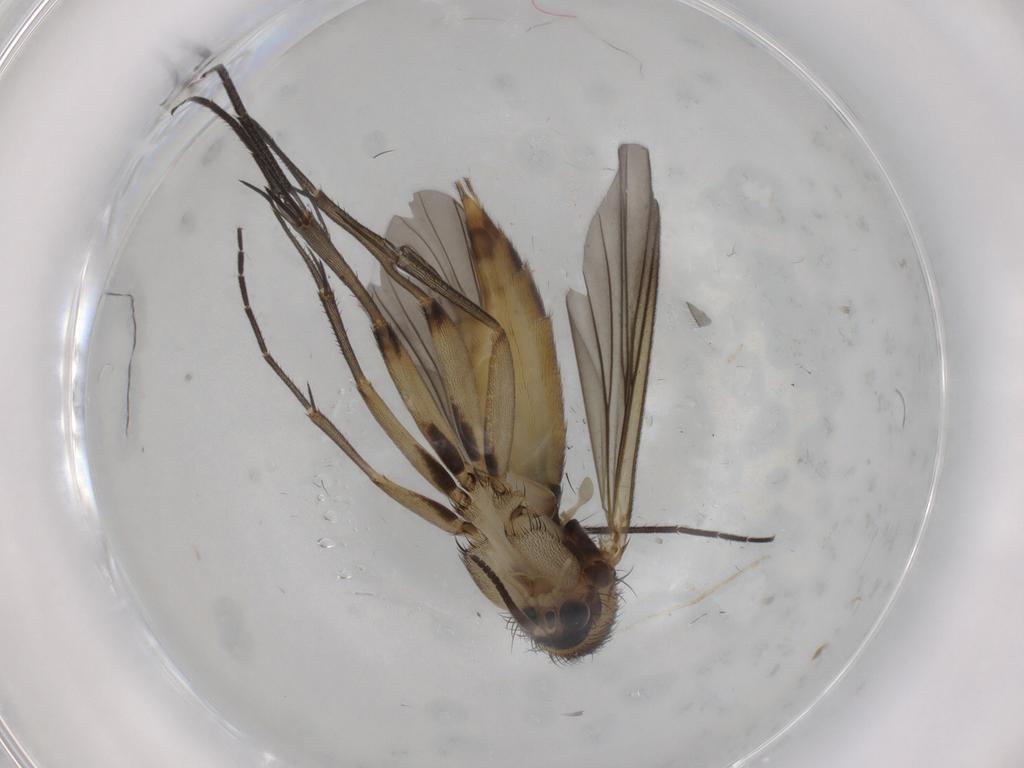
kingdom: Animalia
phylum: Arthropoda
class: Insecta
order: Diptera
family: Mycetophilidae
